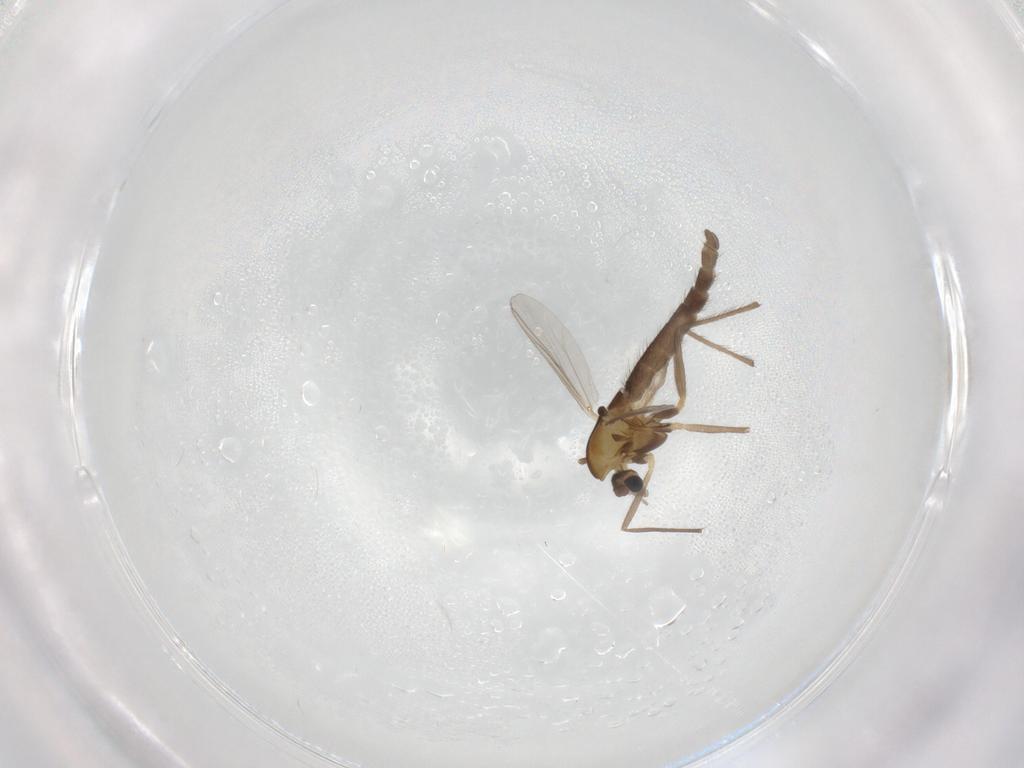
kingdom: Animalia
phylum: Arthropoda
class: Insecta
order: Diptera
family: Chironomidae
